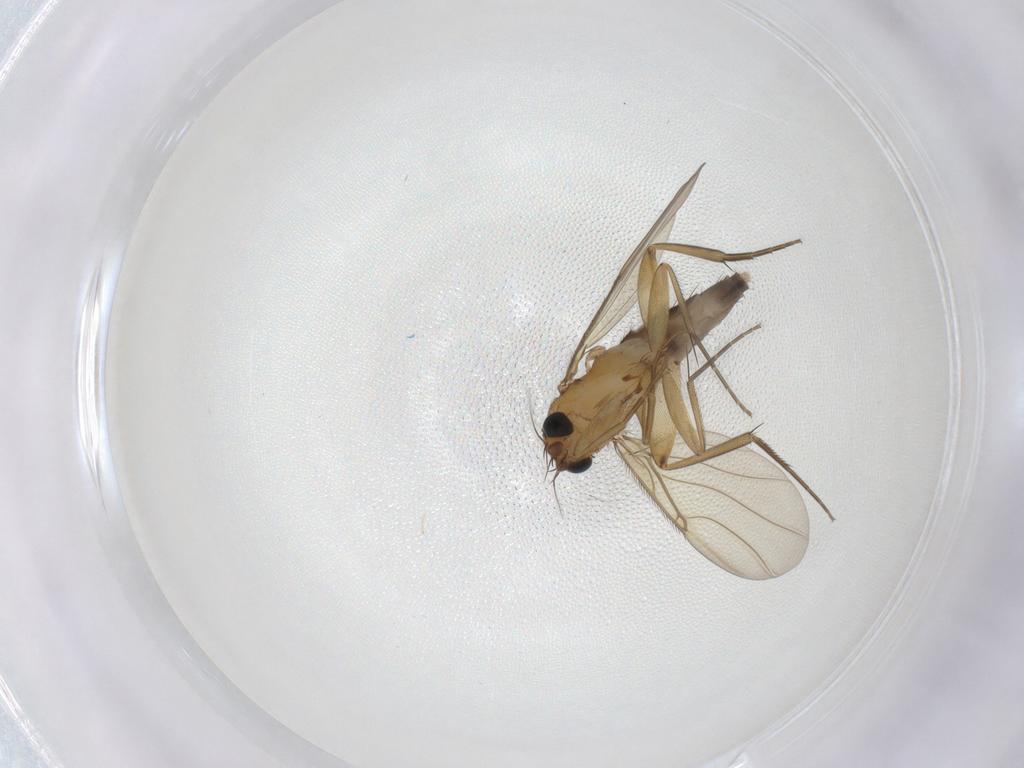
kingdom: Animalia
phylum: Arthropoda
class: Insecta
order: Diptera
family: Phoridae
